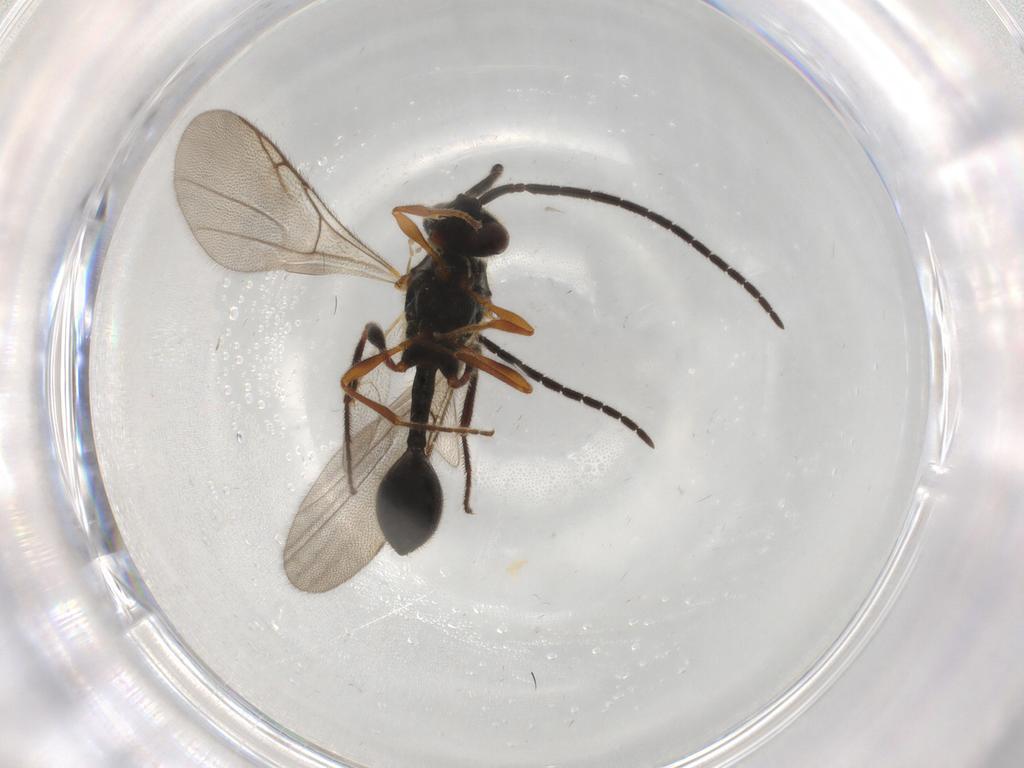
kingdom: Animalia
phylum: Arthropoda
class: Insecta
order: Hymenoptera
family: Diapriidae
